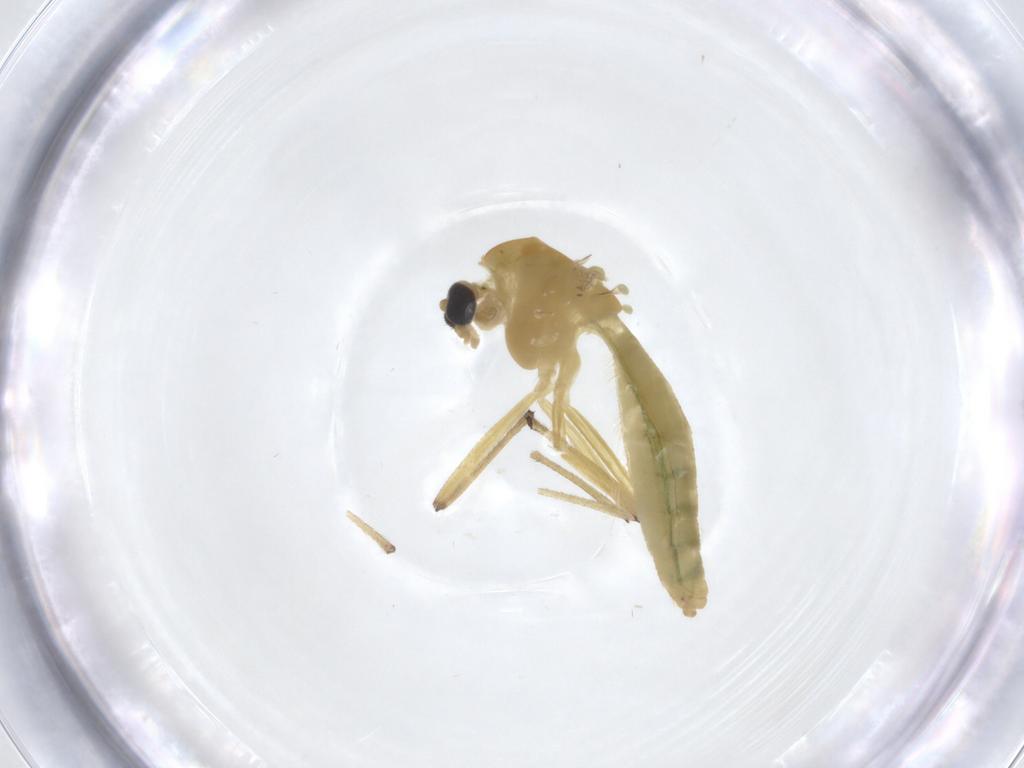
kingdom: Animalia
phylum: Arthropoda
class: Insecta
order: Diptera
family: Chironomidae
